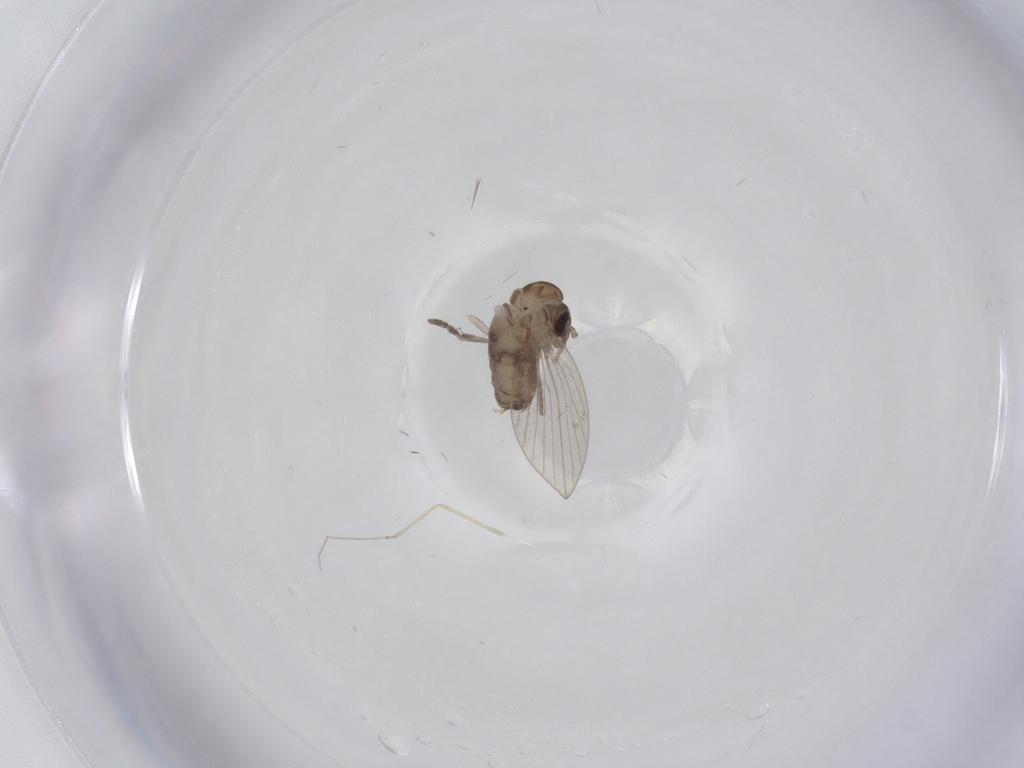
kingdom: Animalia
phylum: Arthropoda
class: Insecta
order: Diptera
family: Psychodidae
